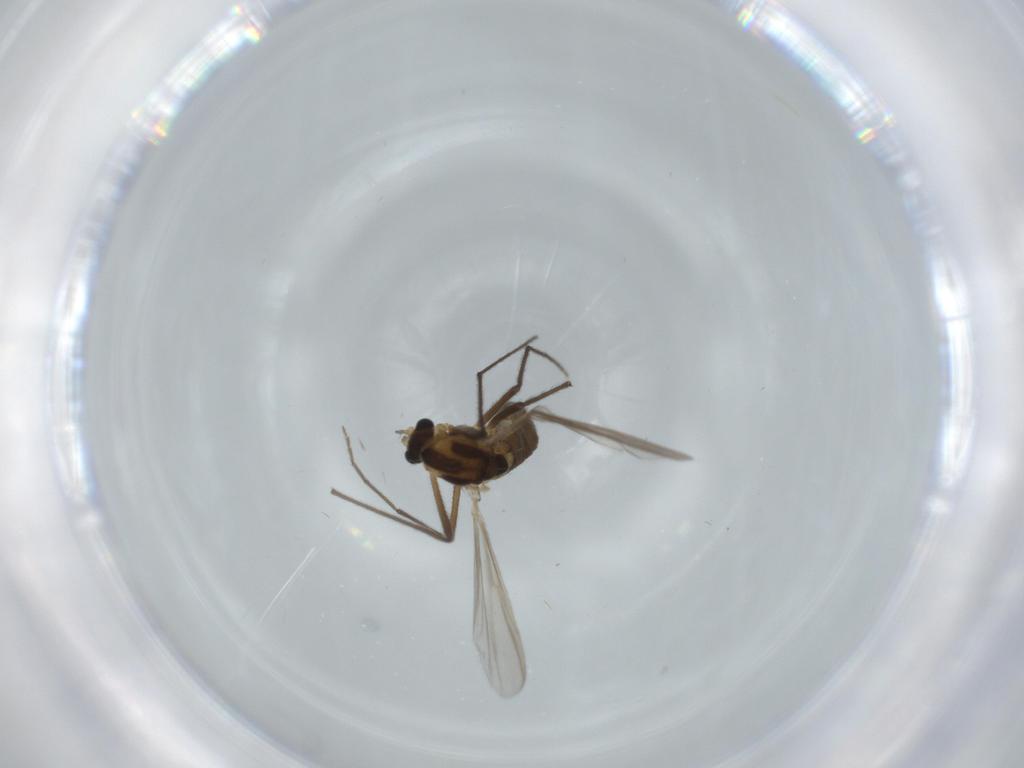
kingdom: Animalia
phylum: Arthropoda
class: Insecta
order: Diptera
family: Chironomidae
